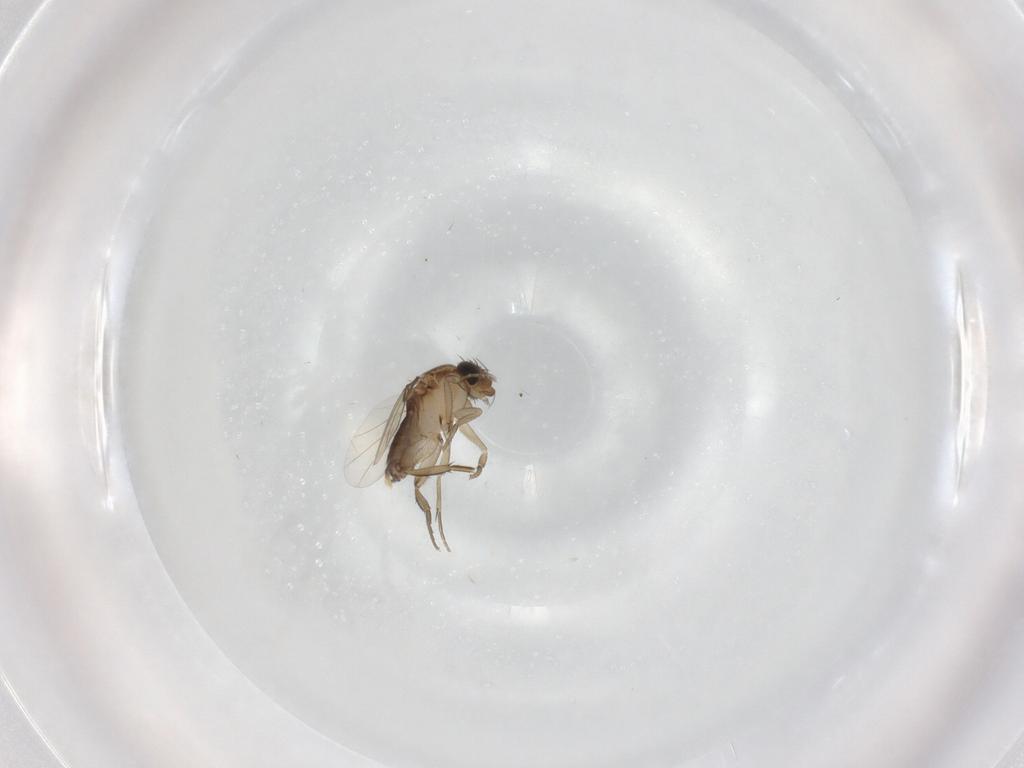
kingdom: Animalia
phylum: Arthropoda
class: Insecta
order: Diptera
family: Phoridae
